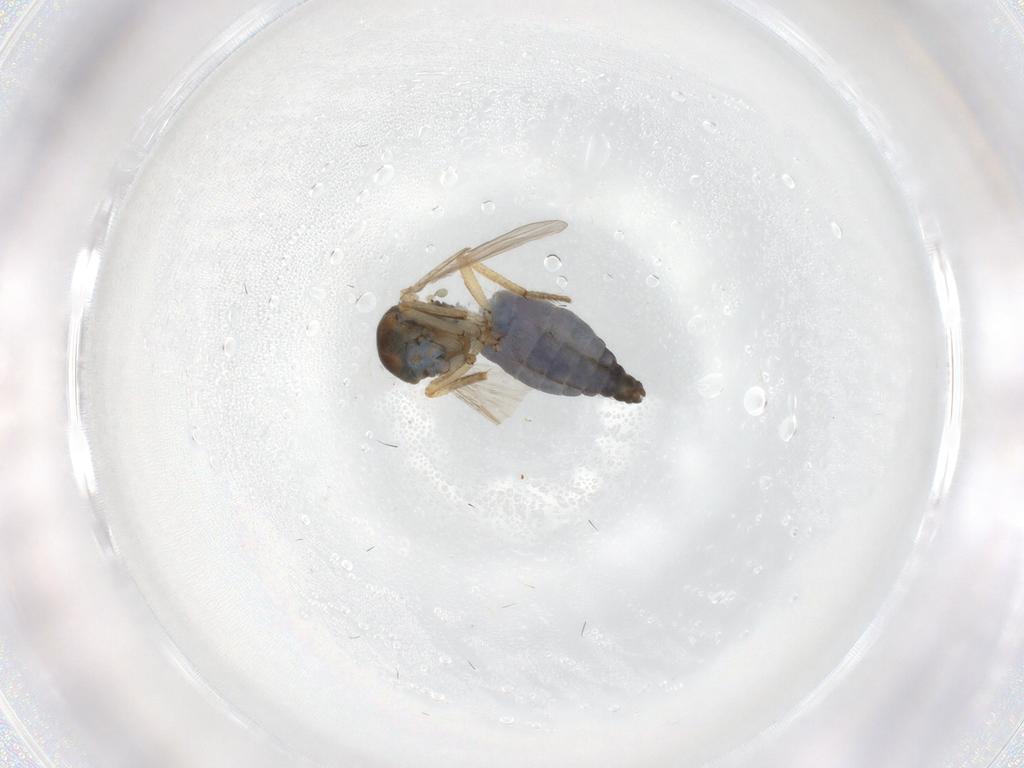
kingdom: Animalia
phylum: Arthropoda
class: Insecta
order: Diptera
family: Ceratopogonidae
